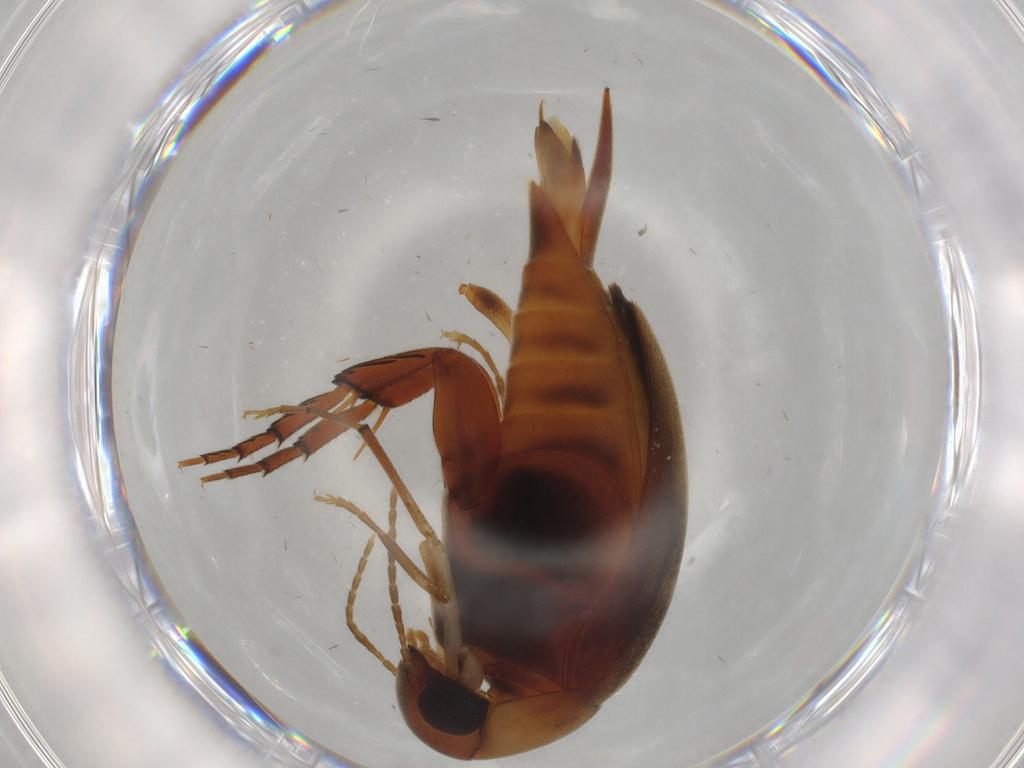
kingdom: Animalia
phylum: Arthropoda
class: Insecta
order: Coleoptera
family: Mordellidae
